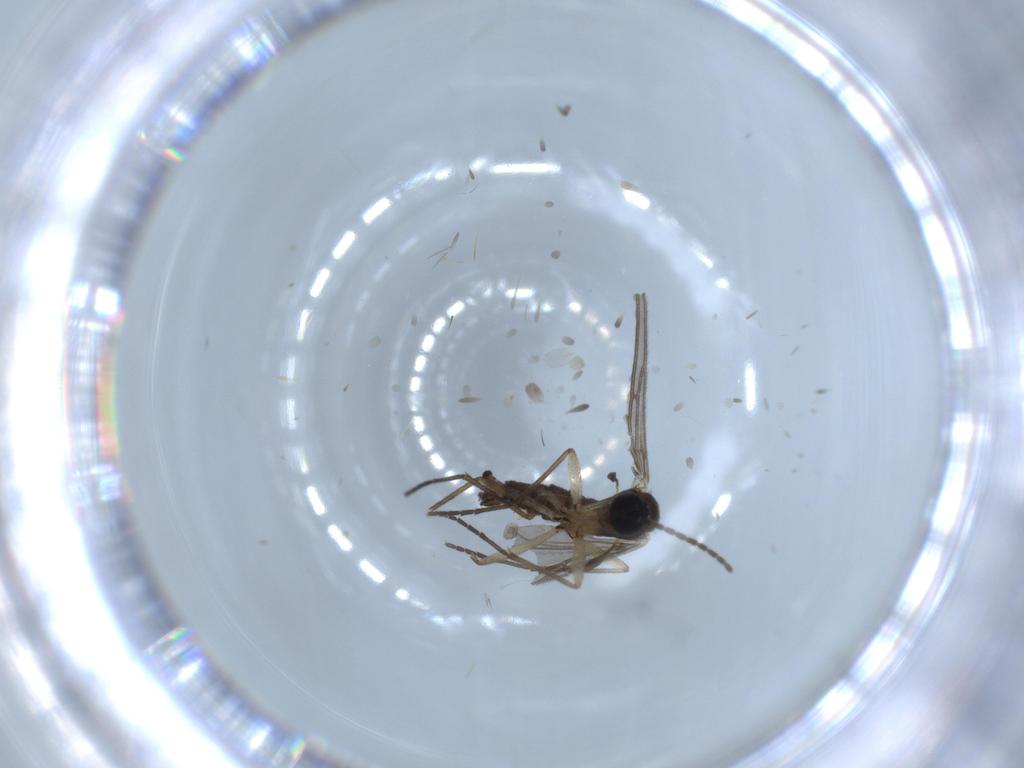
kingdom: Animalia
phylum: Arthropoda
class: Insecta
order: Diptera
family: Sciaridae
